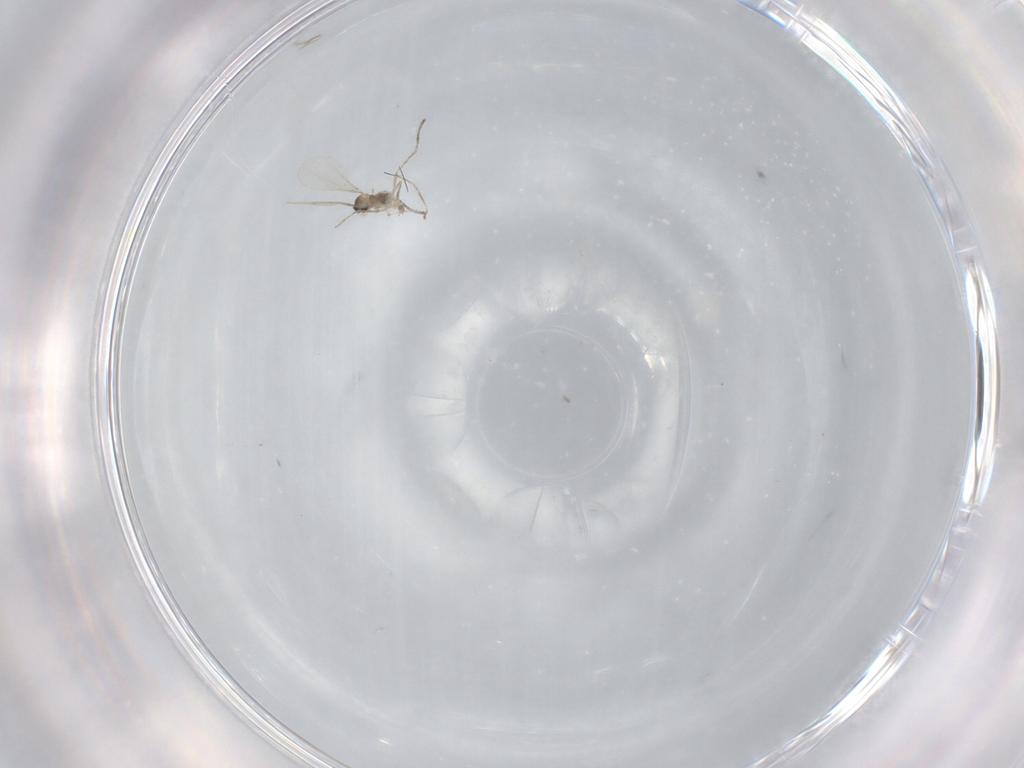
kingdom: Animalia
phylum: Arthropoda
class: Insecta
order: Diptera
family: Cecidomyiidae
